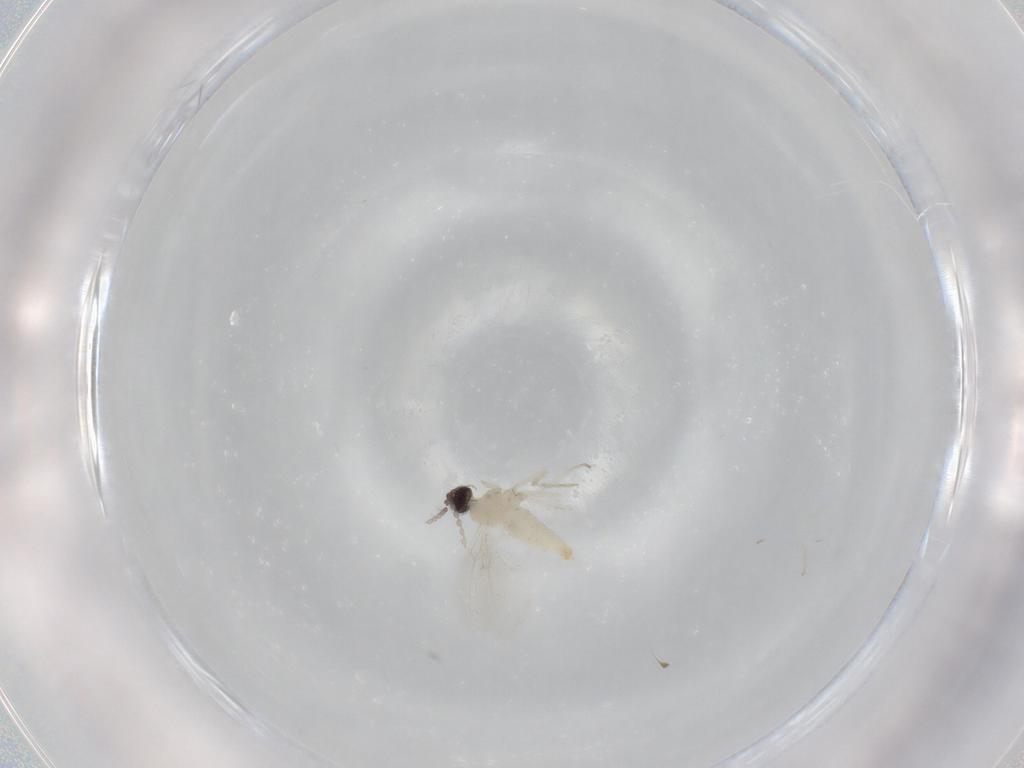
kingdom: Animalia
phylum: Arthropoda
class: Insecta
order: Diptera
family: Cecidomyiidae
